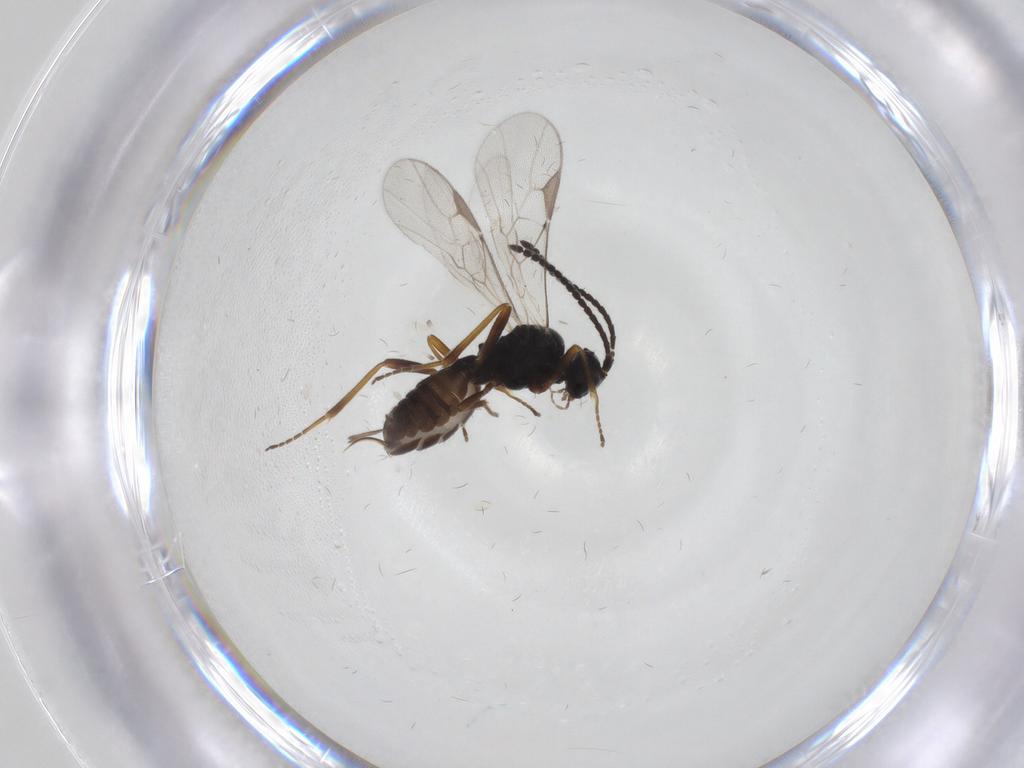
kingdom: Animalia
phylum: Arthropoda
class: Insecta
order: Hymenoptera
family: Braconidae
